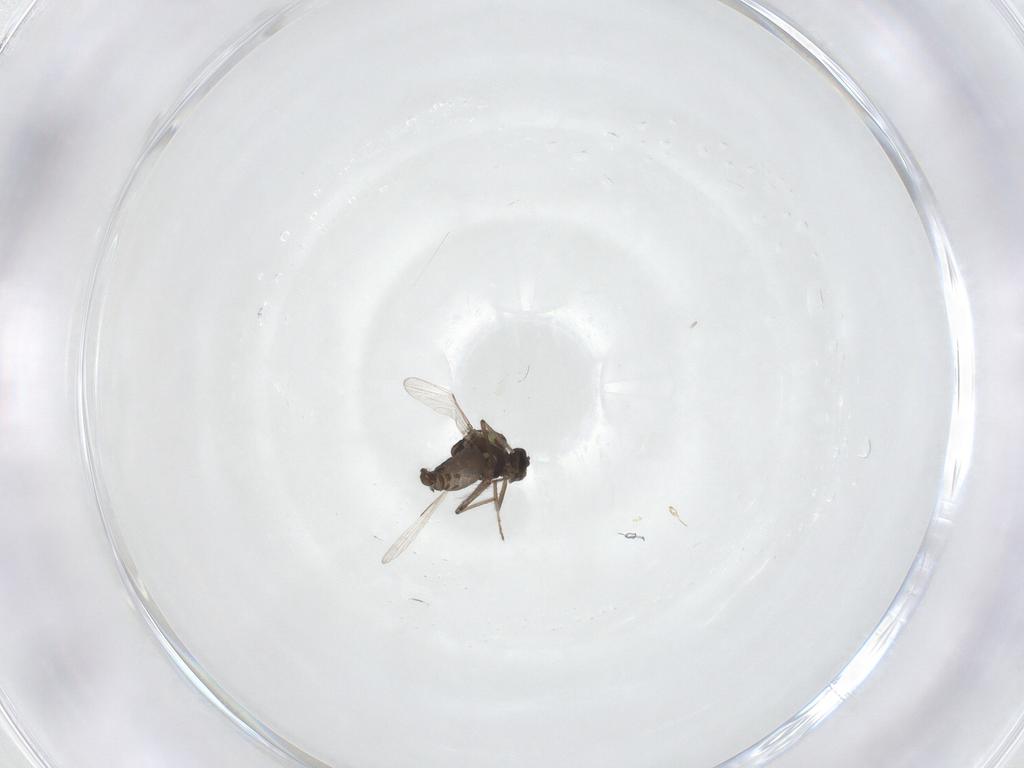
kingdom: Animalia
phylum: Arthropoda
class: Insecta
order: Diptera
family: Ceratopogonidae
